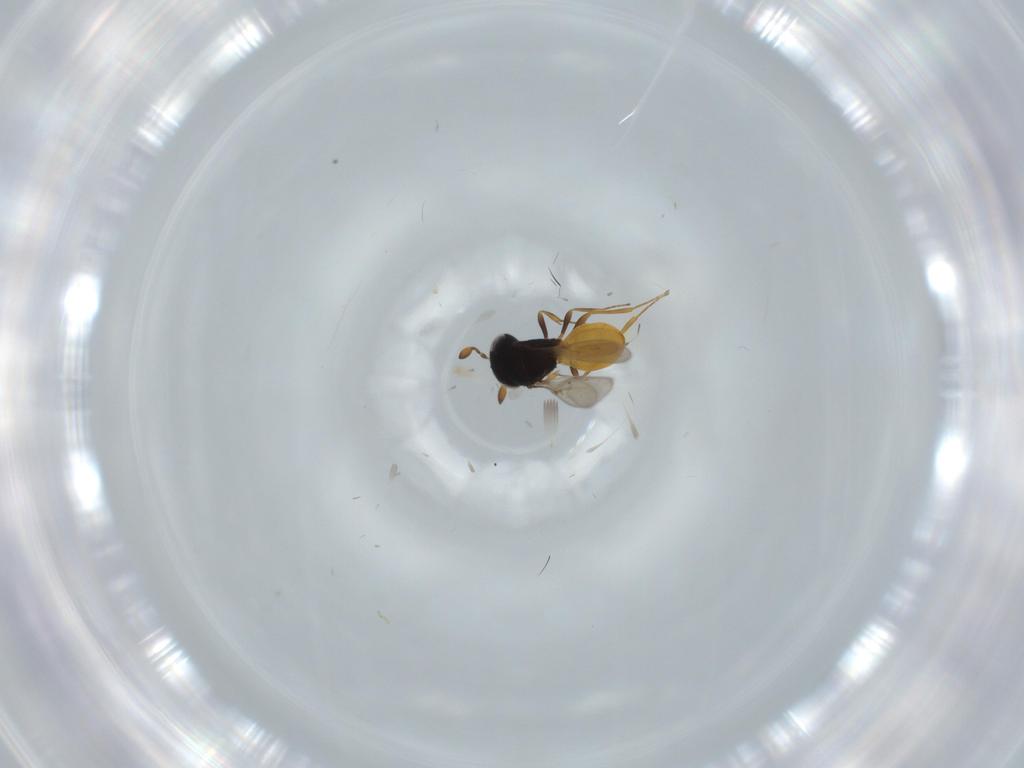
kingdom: Animalia
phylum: Arthropoda
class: Insecta
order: Hymenoptera
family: Scelionidae
